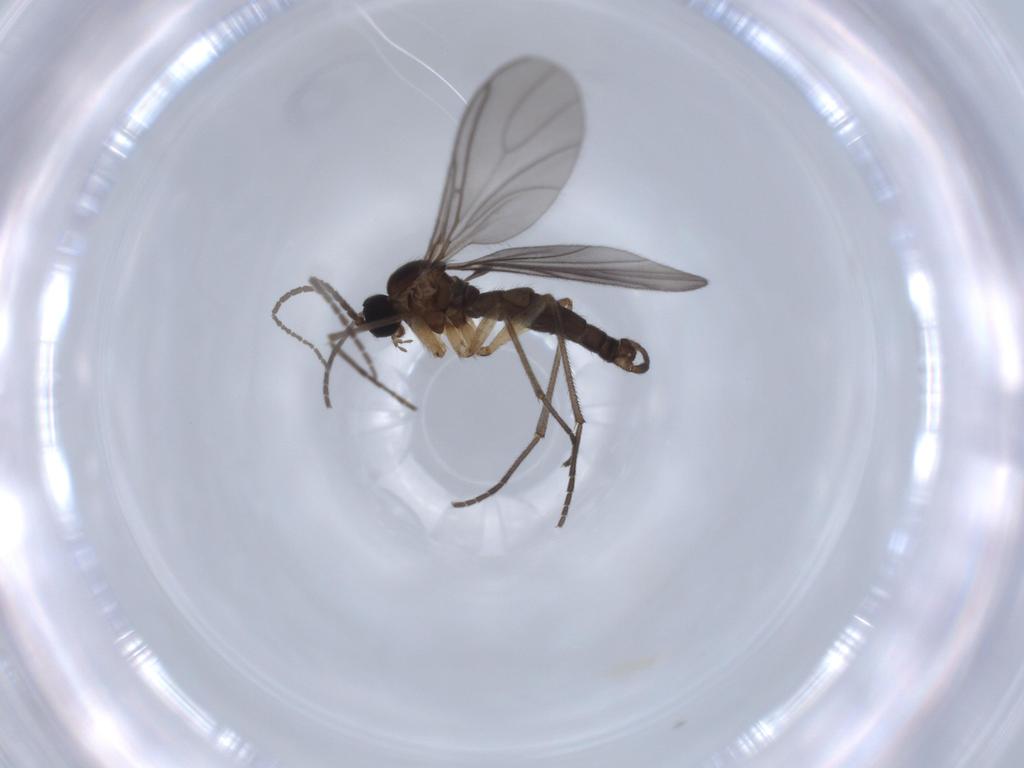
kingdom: Animalia
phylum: Arthropoda
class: Insecta
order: Diptera
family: Sciaridae
